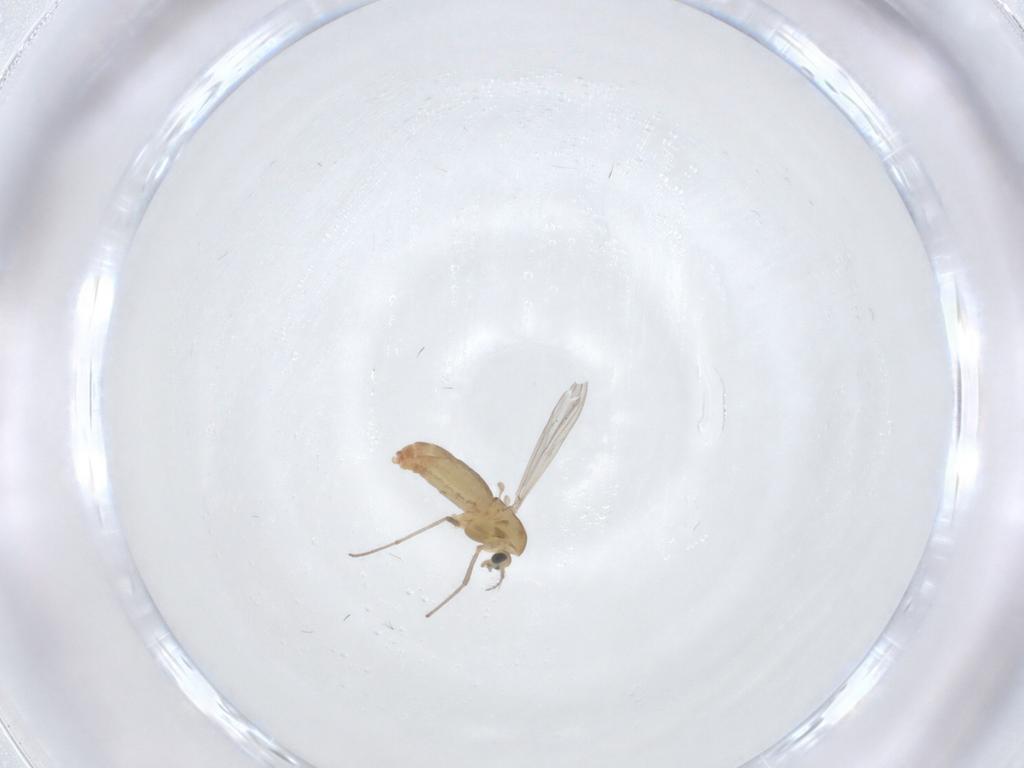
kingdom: Animalia
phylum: Arthropoda
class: Insecta
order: Diptera
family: Chironomidae
